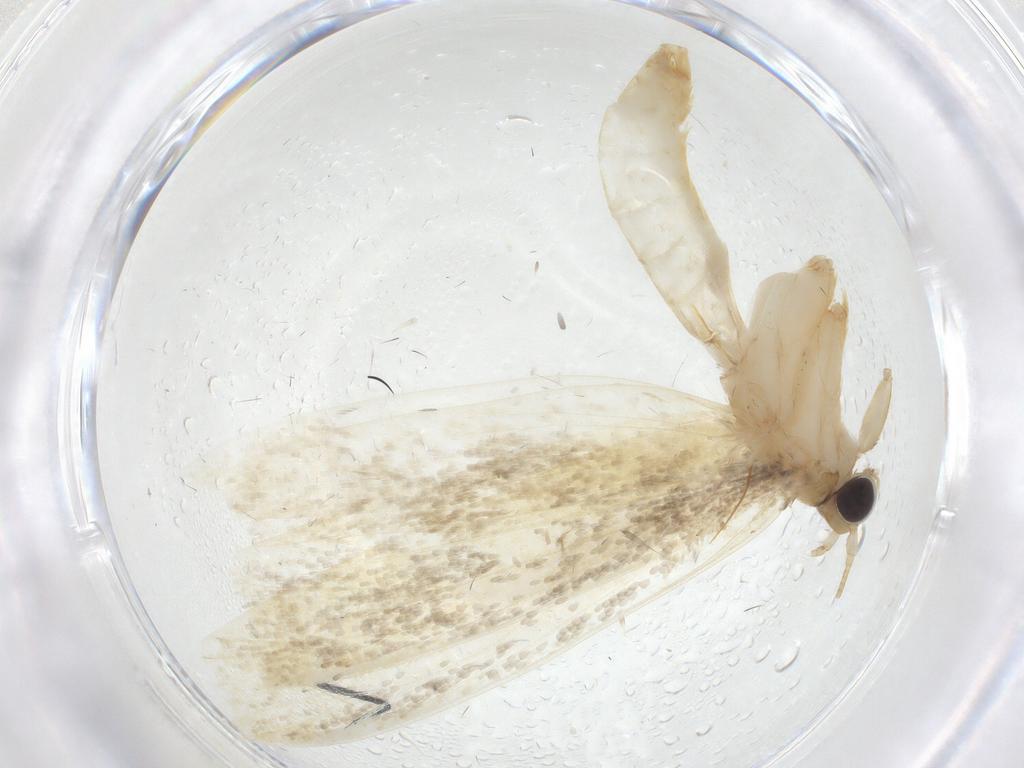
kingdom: Animalia
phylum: Arthropoda
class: Insecta
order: Lepidoptera
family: Tineidae
